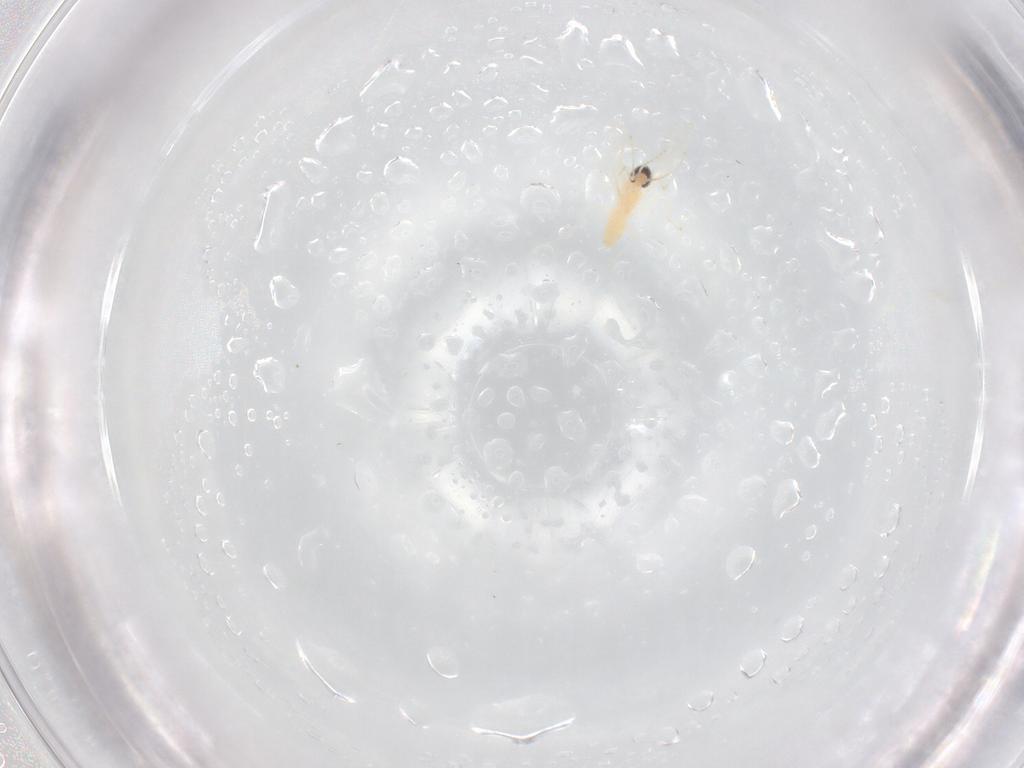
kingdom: Animalia
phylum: Arthropoda
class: Insecta
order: Diptera
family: Cecidomyiidae
